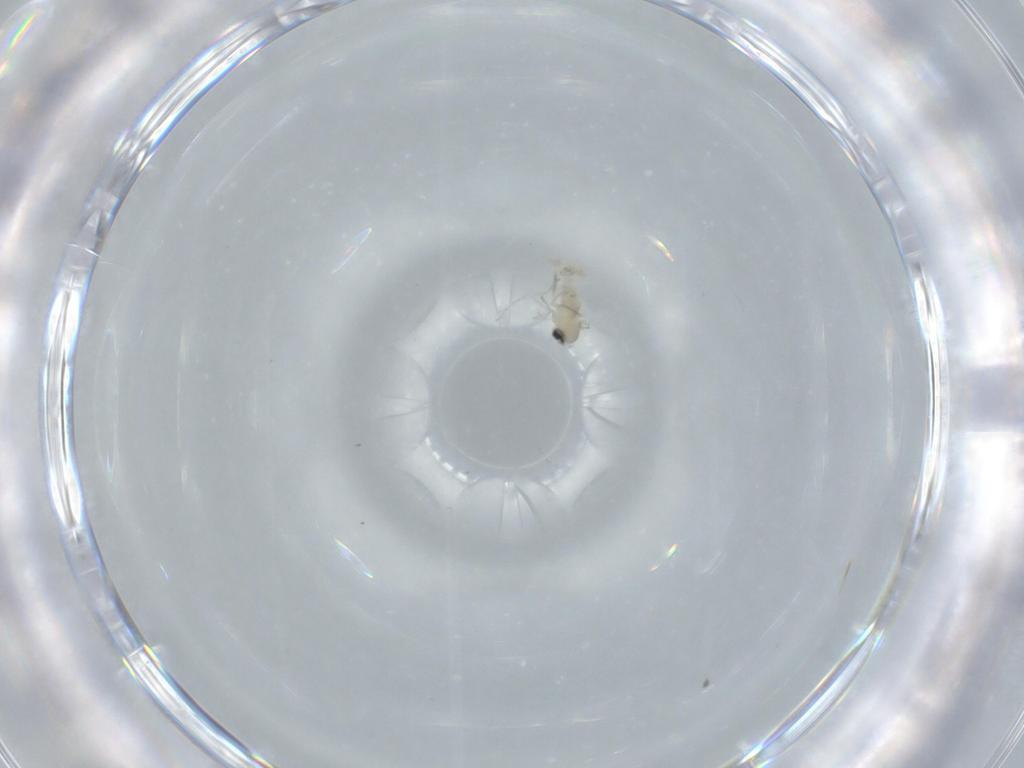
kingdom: Animalia
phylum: Arthropoda
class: Insecta
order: Diptera
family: Cecidomyiidae
